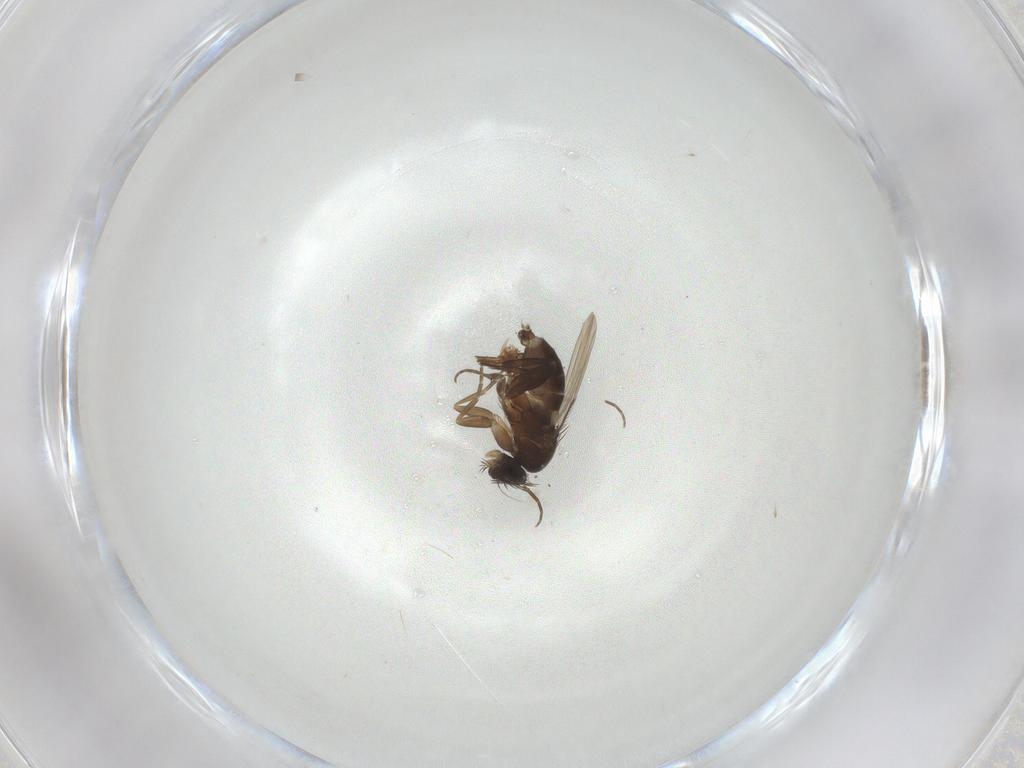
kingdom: Animalia
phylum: Arthropoda
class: Insecta
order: Diptera
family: Phoridae
